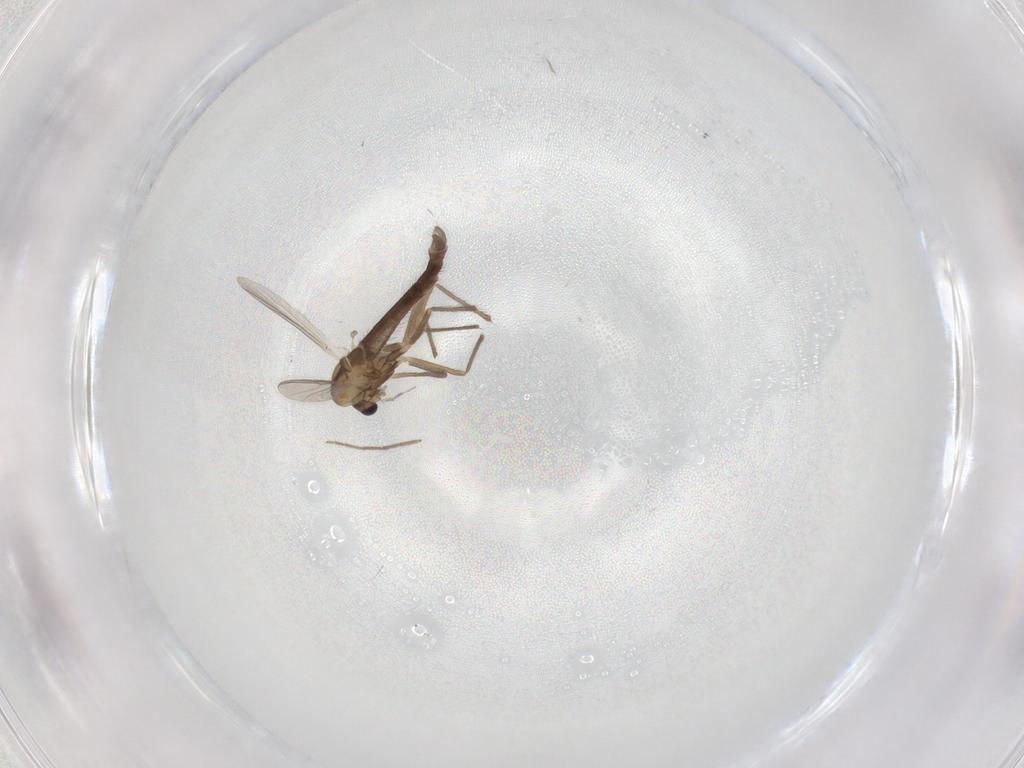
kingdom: Animalia
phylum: Arthropoda
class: Insecta
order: Diptera
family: Chironomidae
